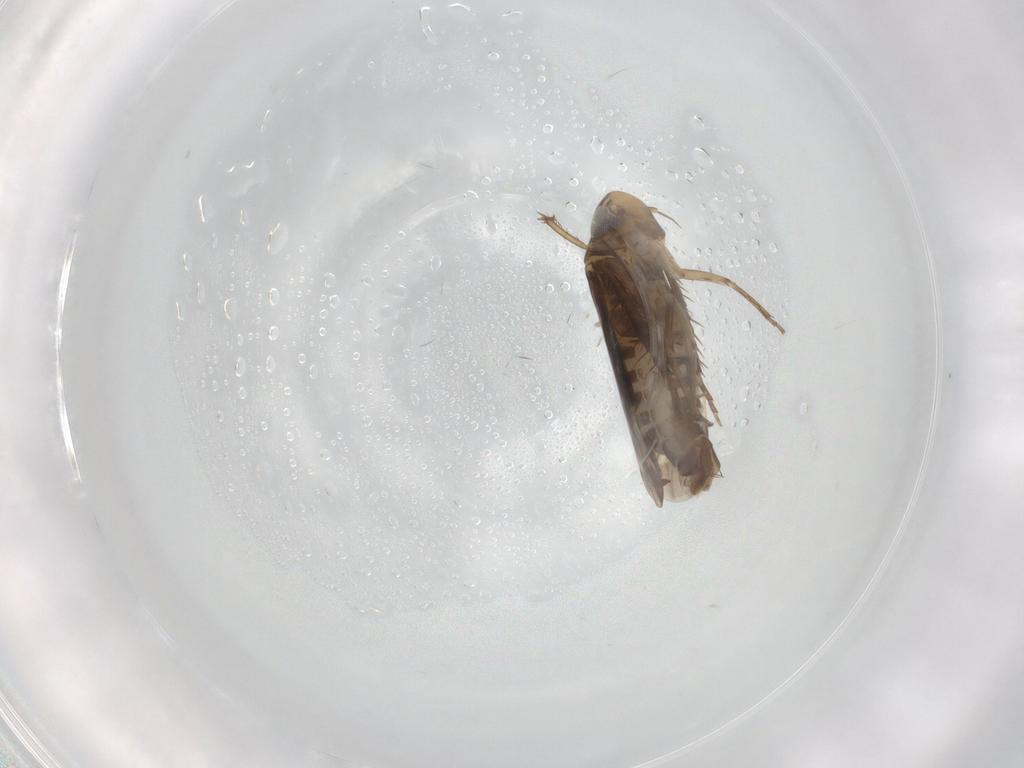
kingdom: Animalia
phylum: Arthropoda
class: Insecta
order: Hemiptera
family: Cicadellidae
